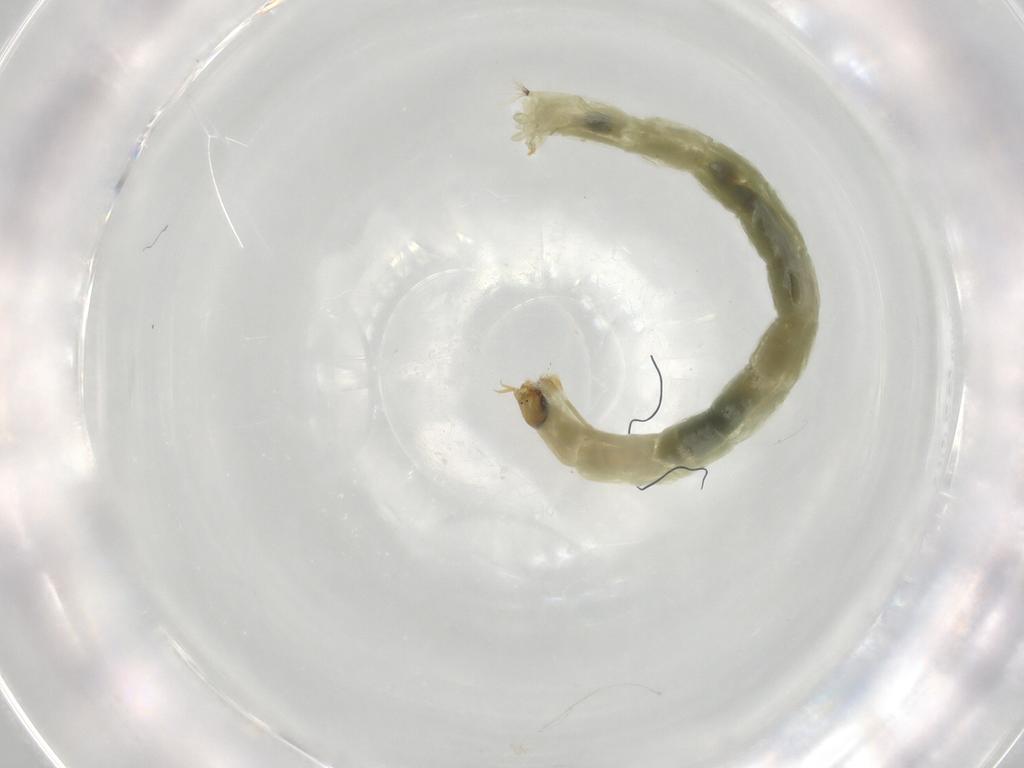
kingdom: Animalia
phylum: Arthropoda
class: Insecta
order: Diptera
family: Chironomidae
